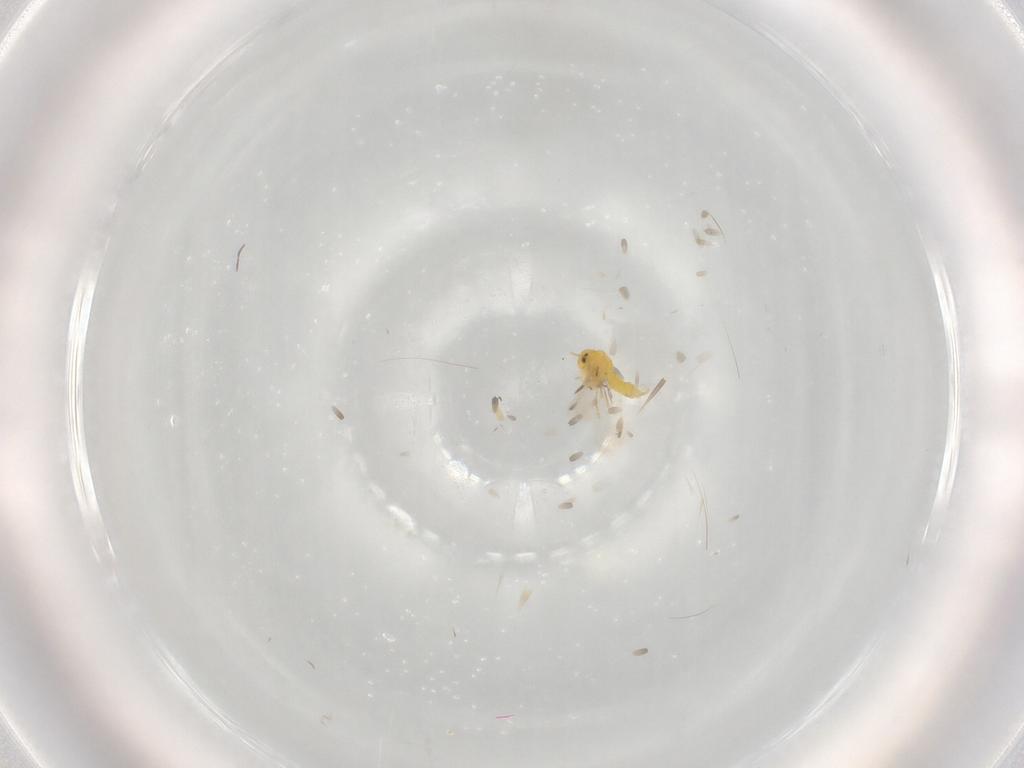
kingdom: Animalia
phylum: Arthropoda
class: Insecta
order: Hemiptera
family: Aleyrodidae
